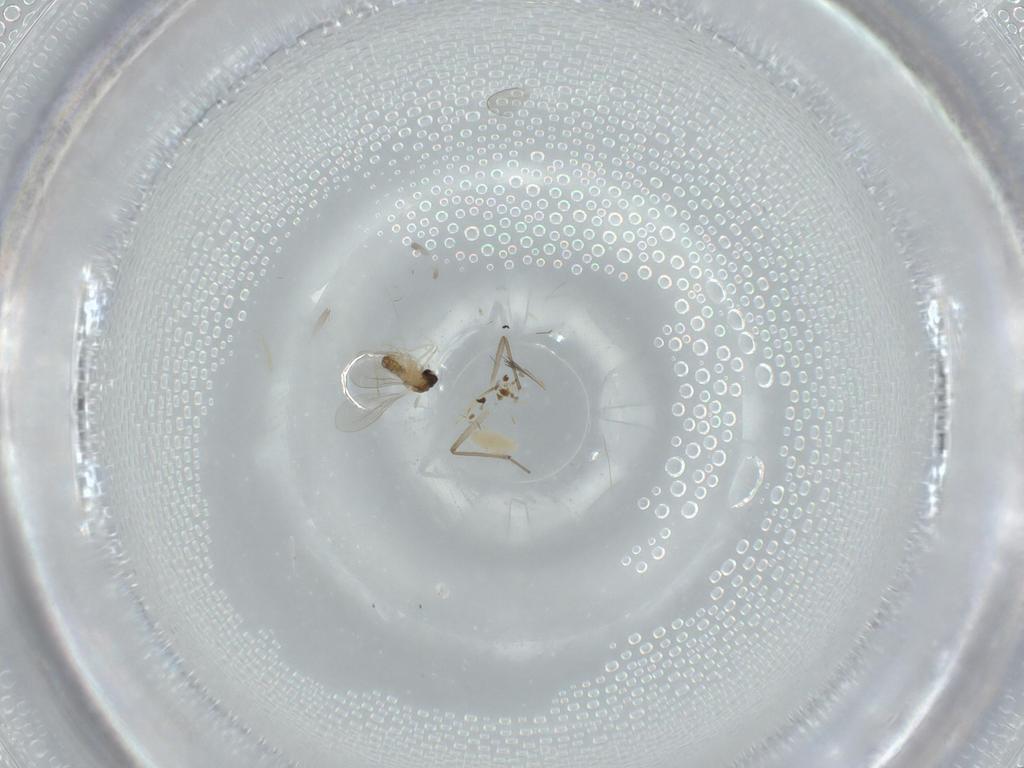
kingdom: Animalia
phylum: Arthropoda
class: Insecta
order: Diptera
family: Cecidomyiidae
